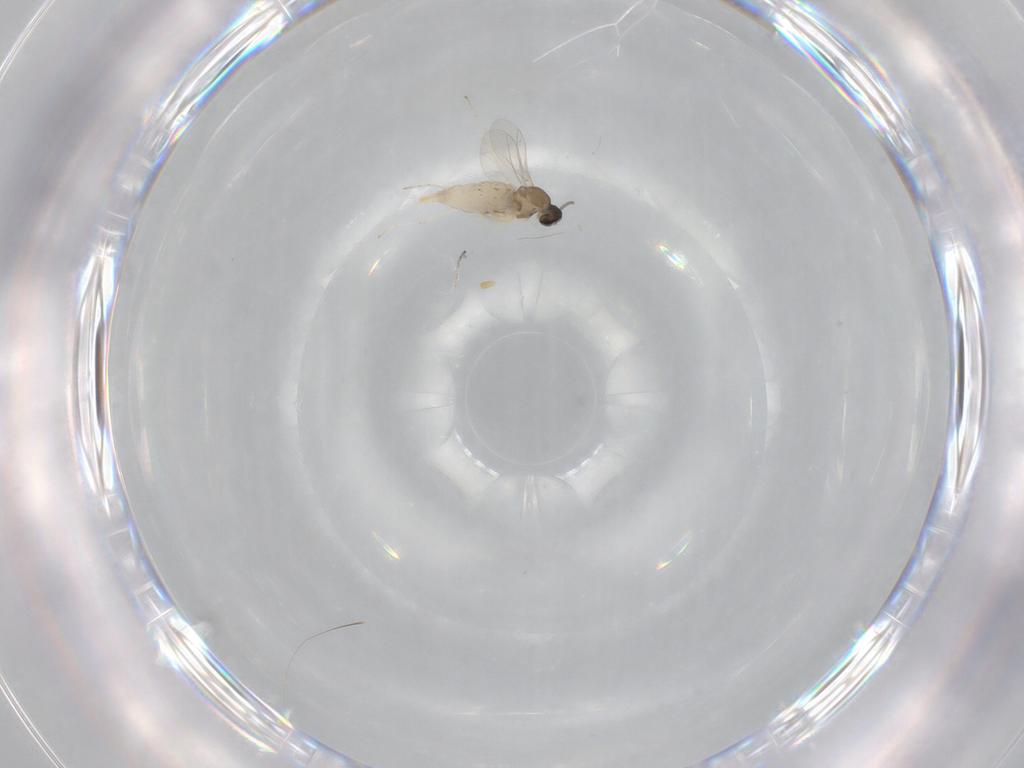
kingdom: Animalia
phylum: Arthropoda
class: Insecta
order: Diptera
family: Cecidomyiidae
